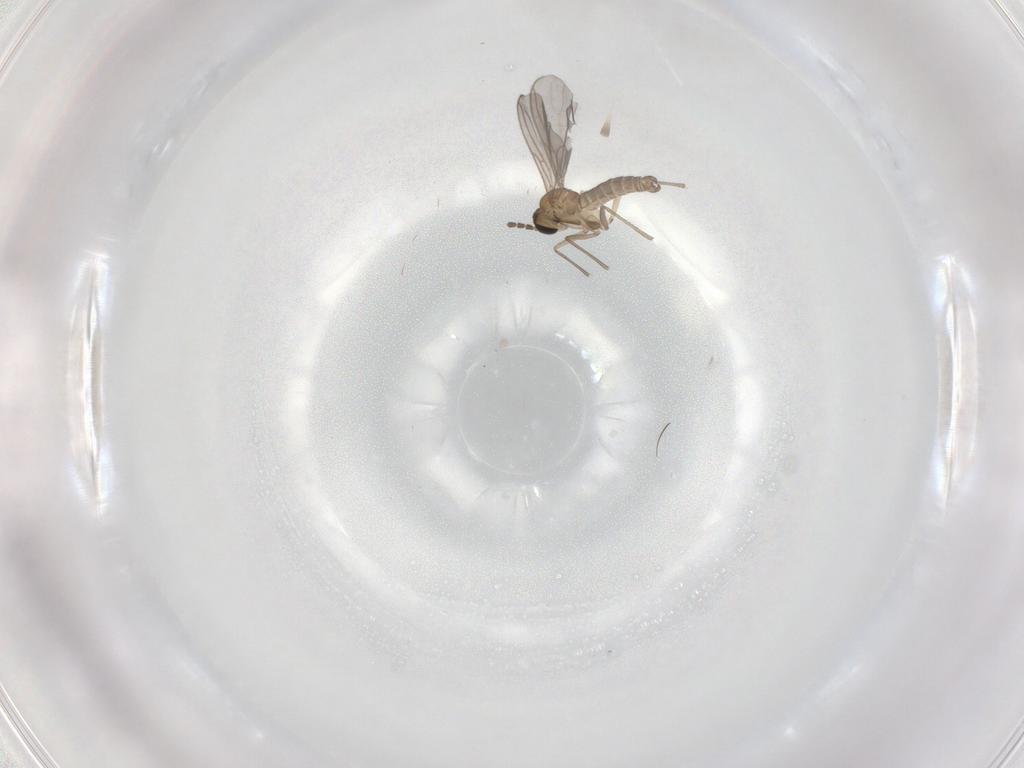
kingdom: Animalia
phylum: Arthropoda
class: Insecta
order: Diptera
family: Sciaridae
